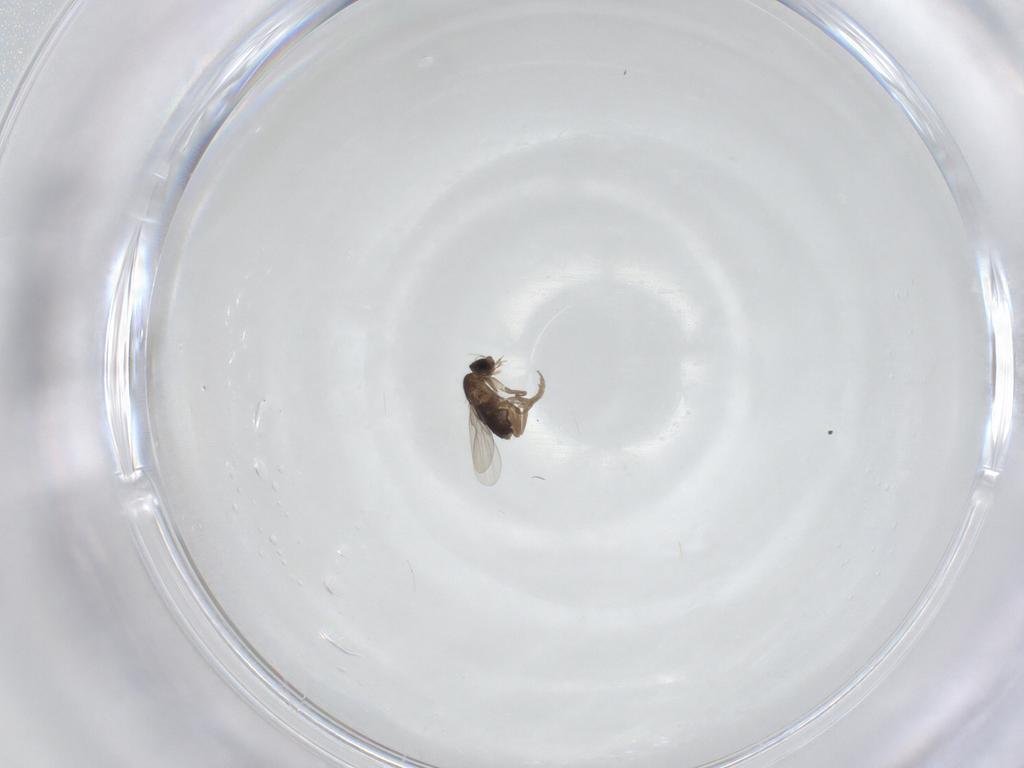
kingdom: Animalia
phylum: Arthropoda
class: Insecta
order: Diptera
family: Phoridae
